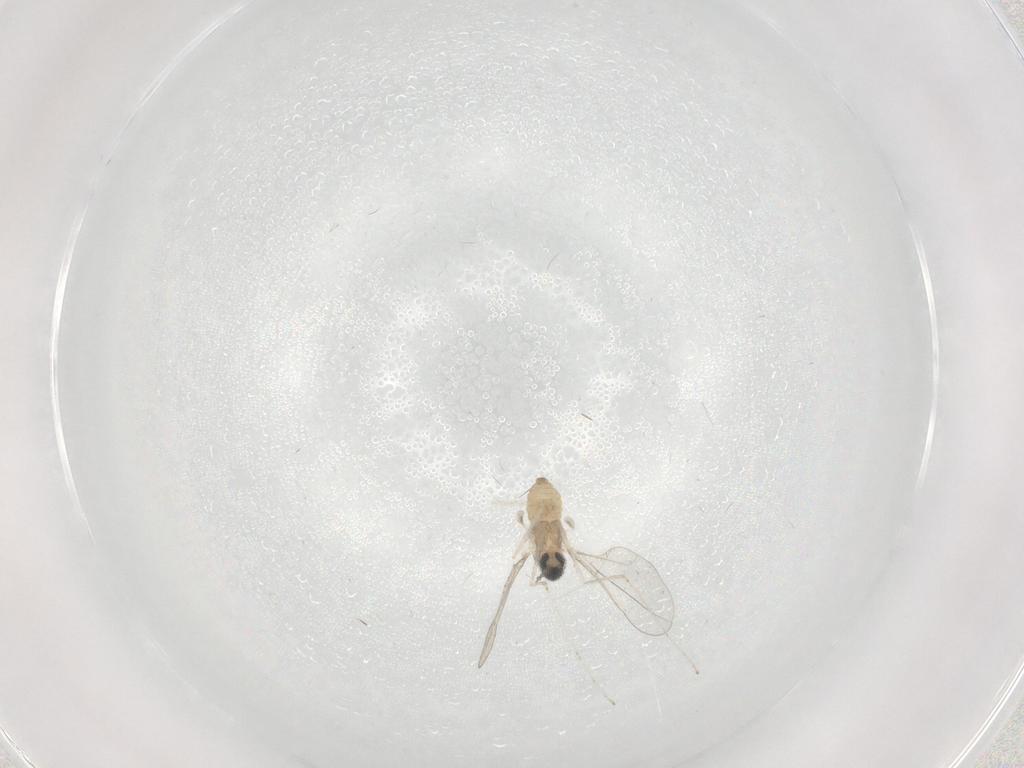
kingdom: Animalia
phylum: Arthropoda
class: Insecta
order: Diptera
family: Cecidomyiidae
